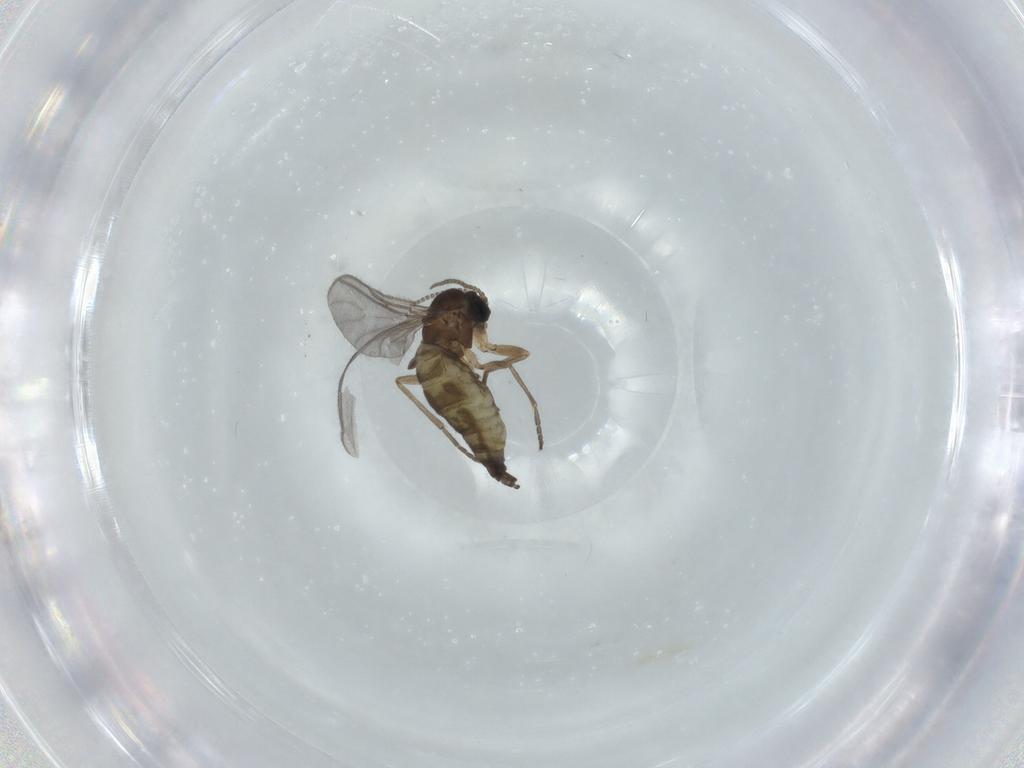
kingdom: Animalia
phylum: Arthropoda
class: Insecta
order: Diptera
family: Sciaridae
